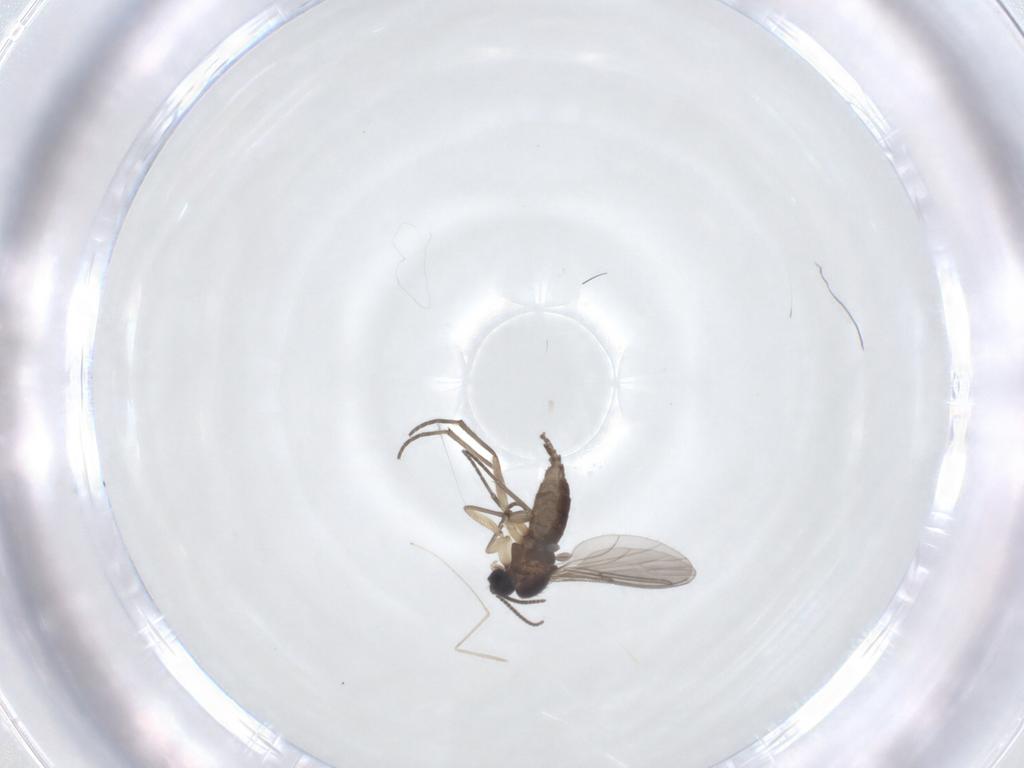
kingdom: Animalia
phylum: Arthropoda
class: Insecta
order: Diptera
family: Sciaridae
